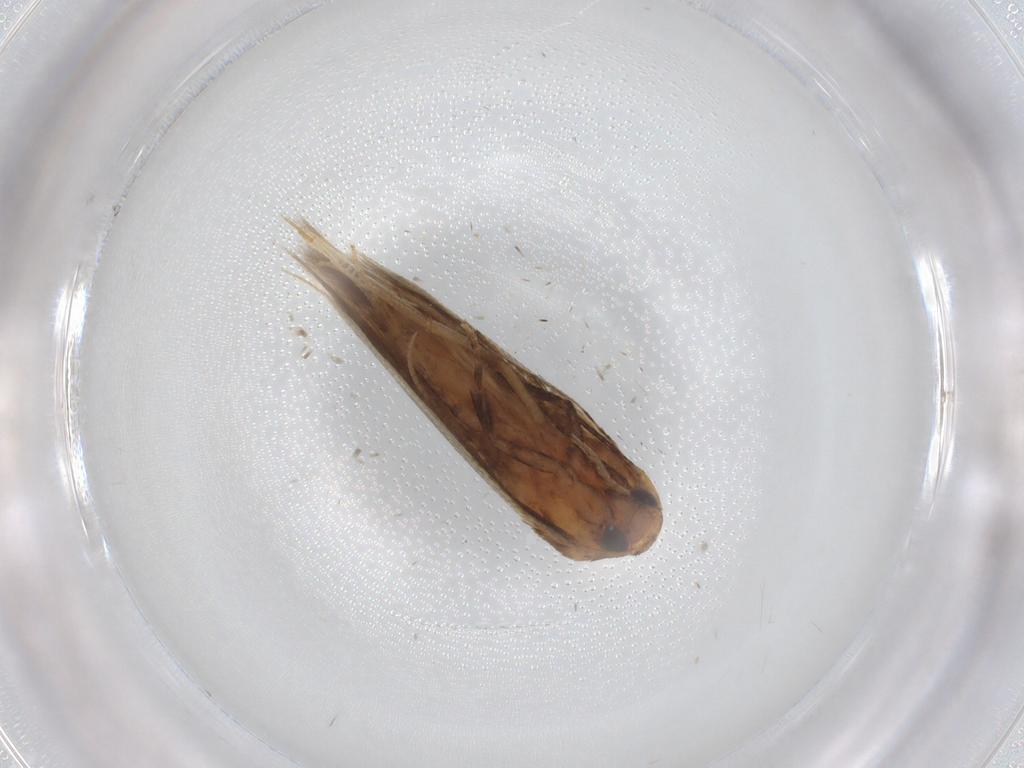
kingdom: Animalia
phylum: Arthropoda
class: Insecta
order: Lepidoptera
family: Cosmopterigidae
